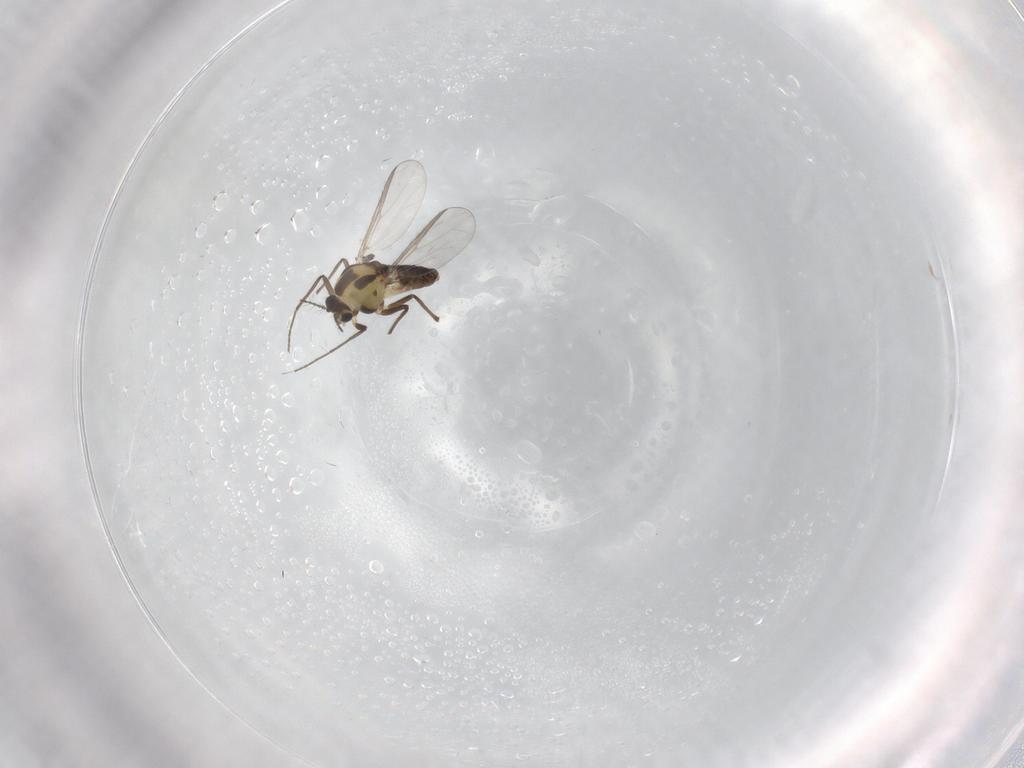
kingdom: Animalia
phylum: Arthropoda
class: Insecta
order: Diptera
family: Chironomidae
